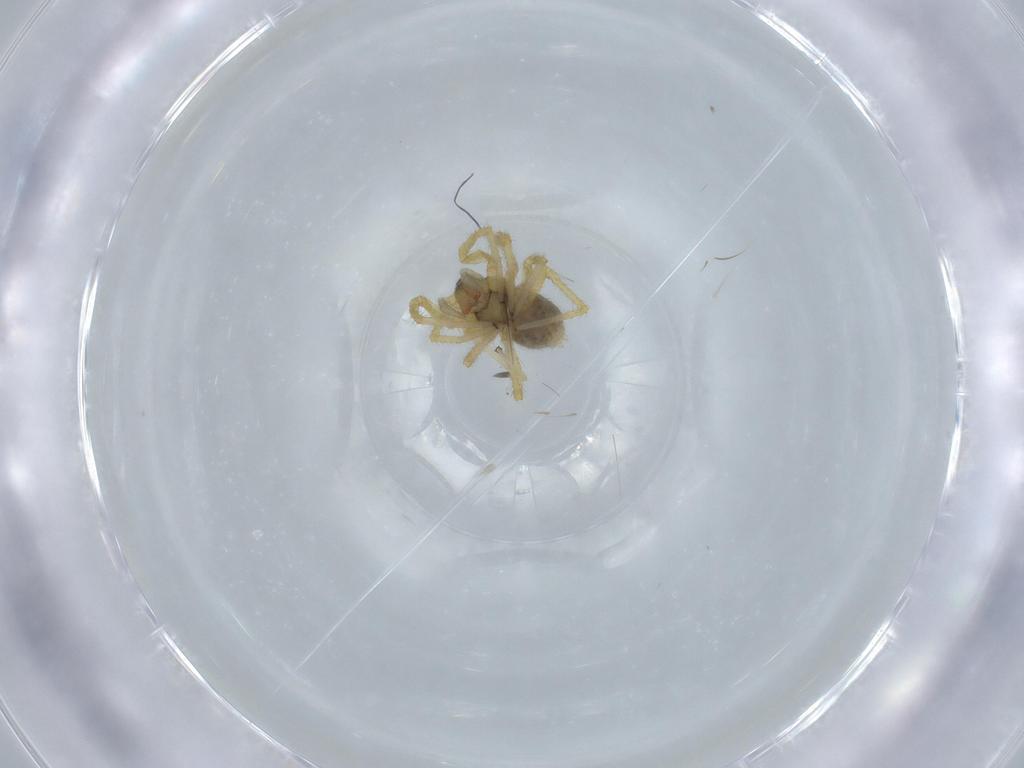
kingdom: Animalia
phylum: Arthropoda
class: Arachnida
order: Araneae
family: Linyphiidae
